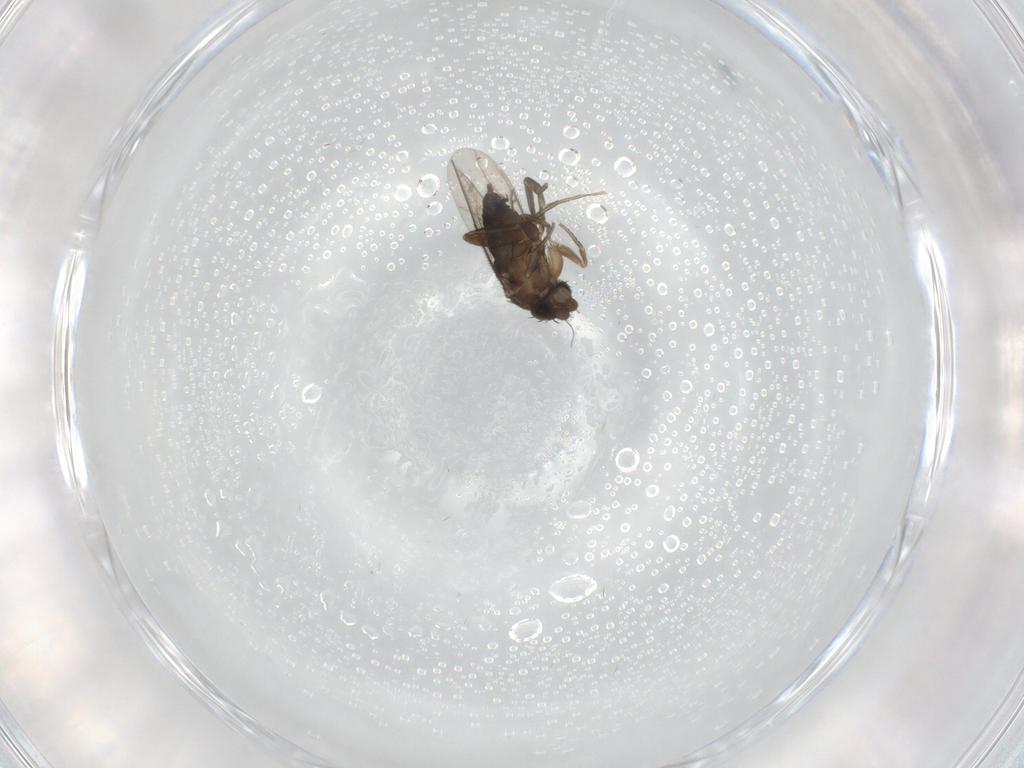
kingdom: Animalia
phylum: Arthropoda
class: Insecta
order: Diptera
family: Phoridae
